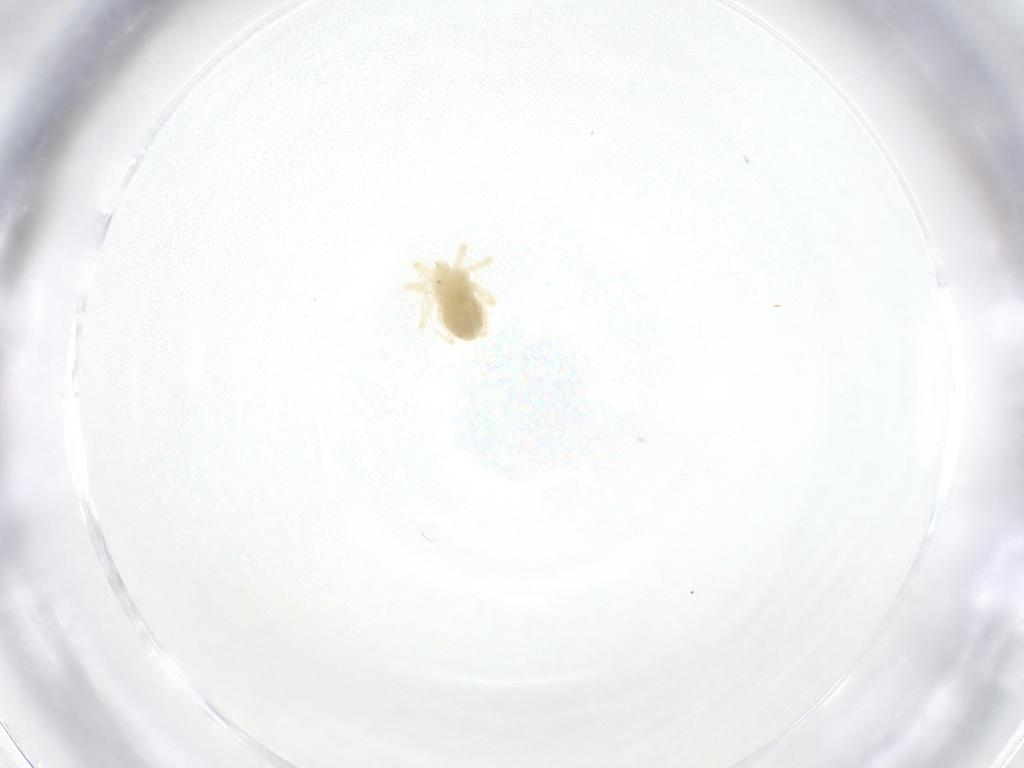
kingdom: Animalia
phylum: Arthropoda
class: Arachnida
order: Trombidiformes
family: Anystidae
